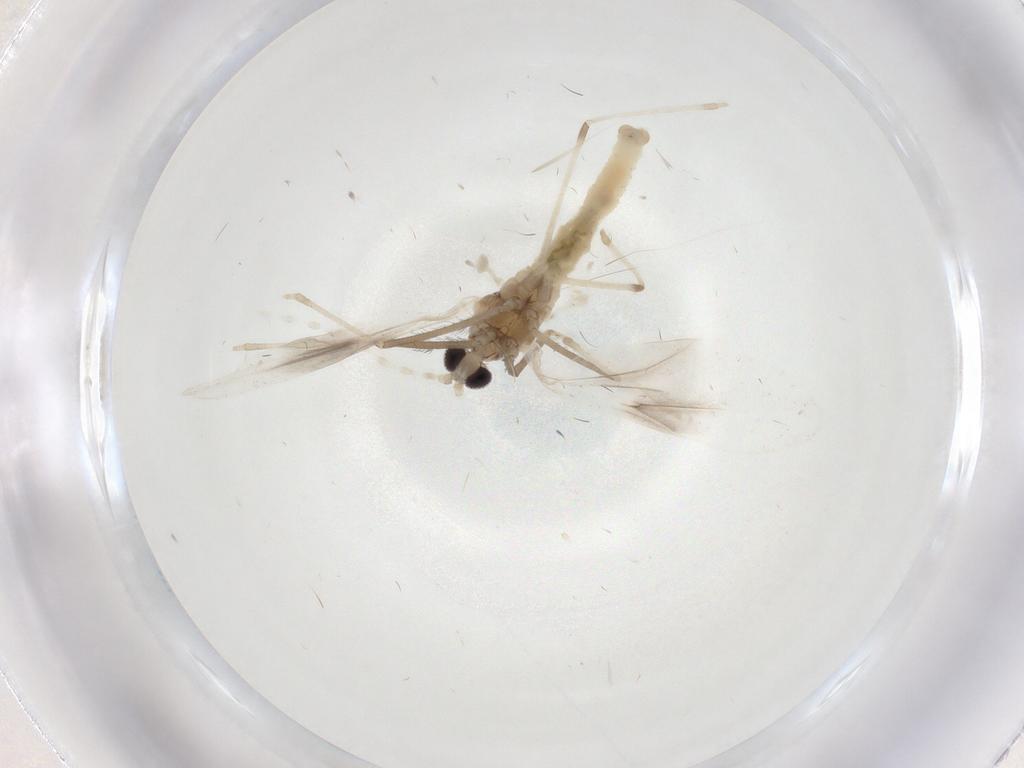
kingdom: Animalia
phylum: Arthropoda
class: Insecta
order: Diptera
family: Cecidomyiidae
